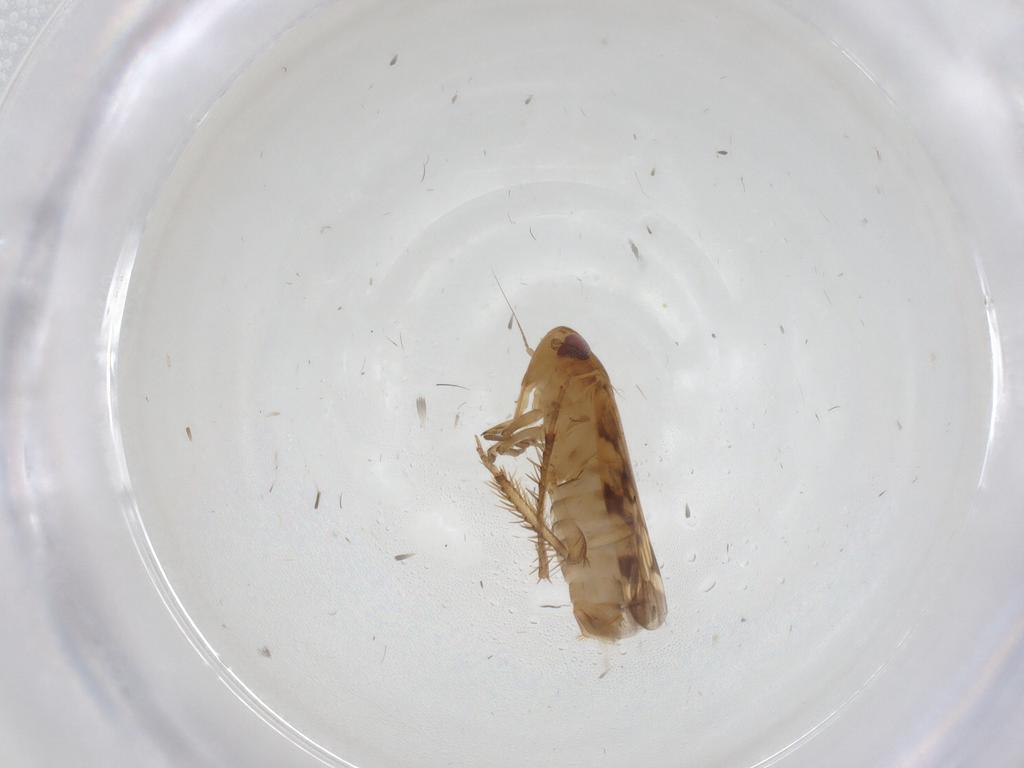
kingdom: Animalia
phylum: Arthropoda
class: Insecta
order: Hemiptera
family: Cicadellidae
